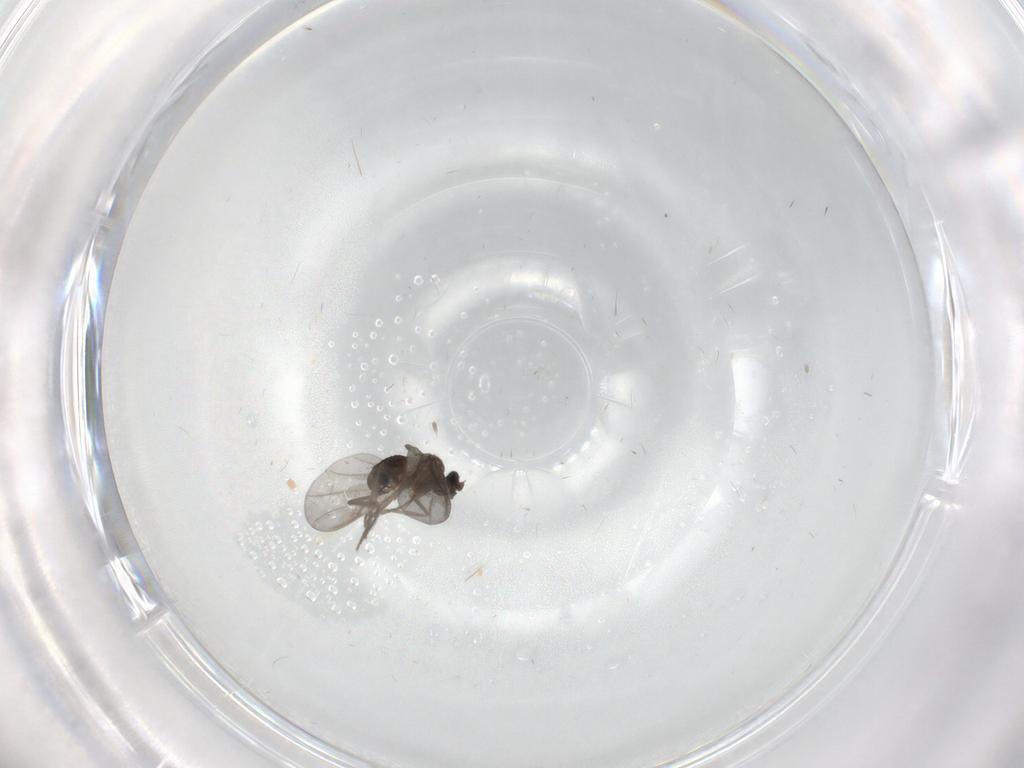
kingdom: Animalia
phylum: Arthropoda
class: Insecta
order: Diptera
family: Phoridae
